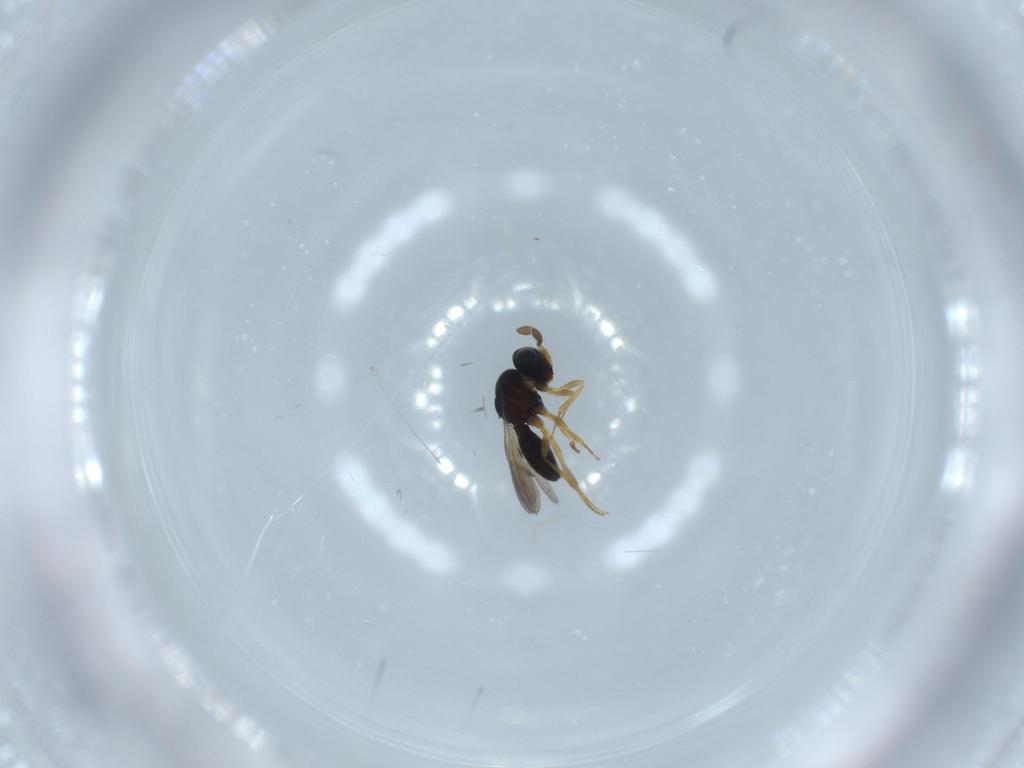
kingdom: Animalia
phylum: Arthropoda
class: Insecta
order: Hymenoptera
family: Scelionidae
